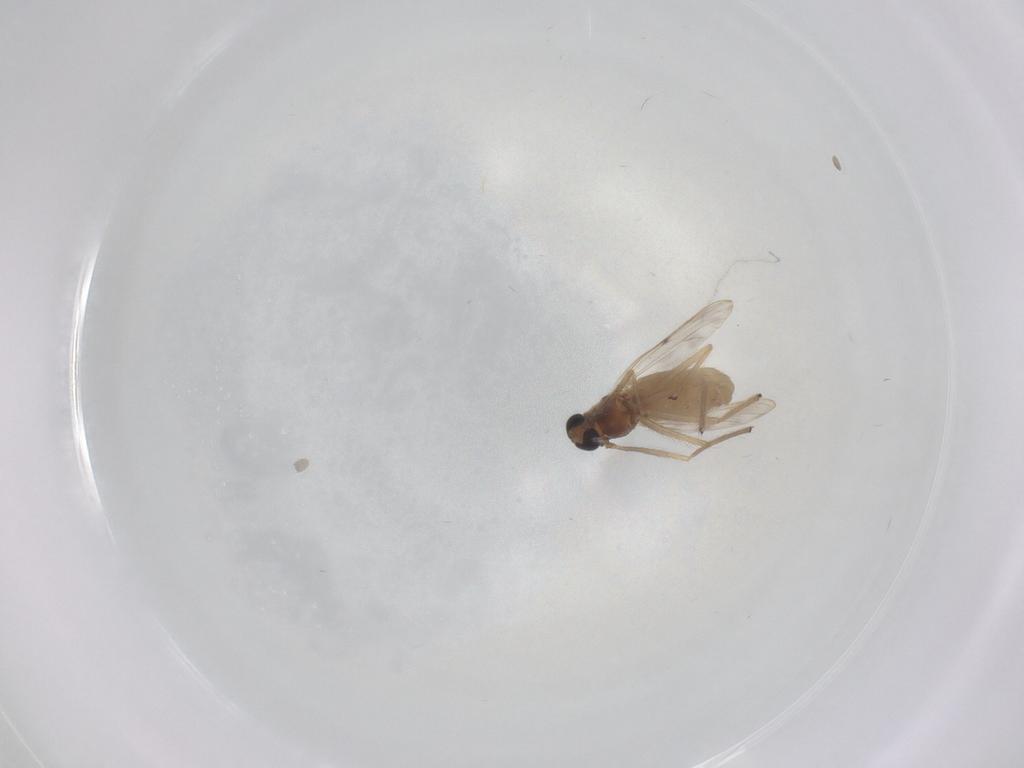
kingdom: Animalia
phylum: Arthropoda
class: Insecta
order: Diptera
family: Chironomidae
